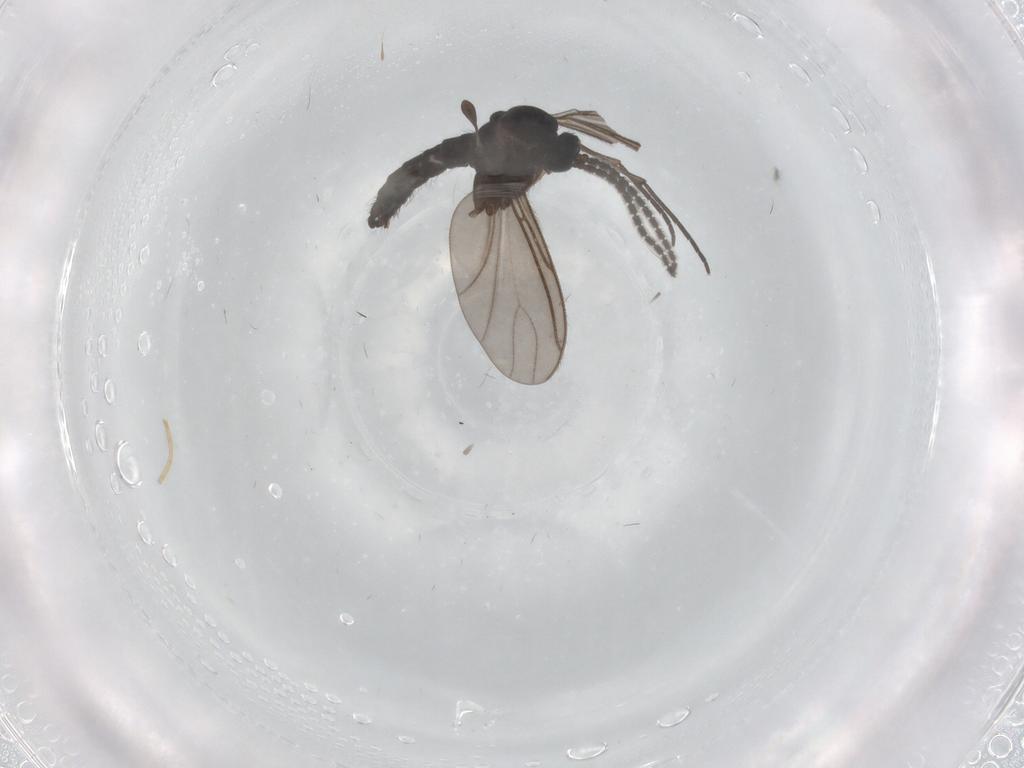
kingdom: Animalia
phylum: Arthropoda
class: Insecta
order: Diptera
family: Sciaridae
